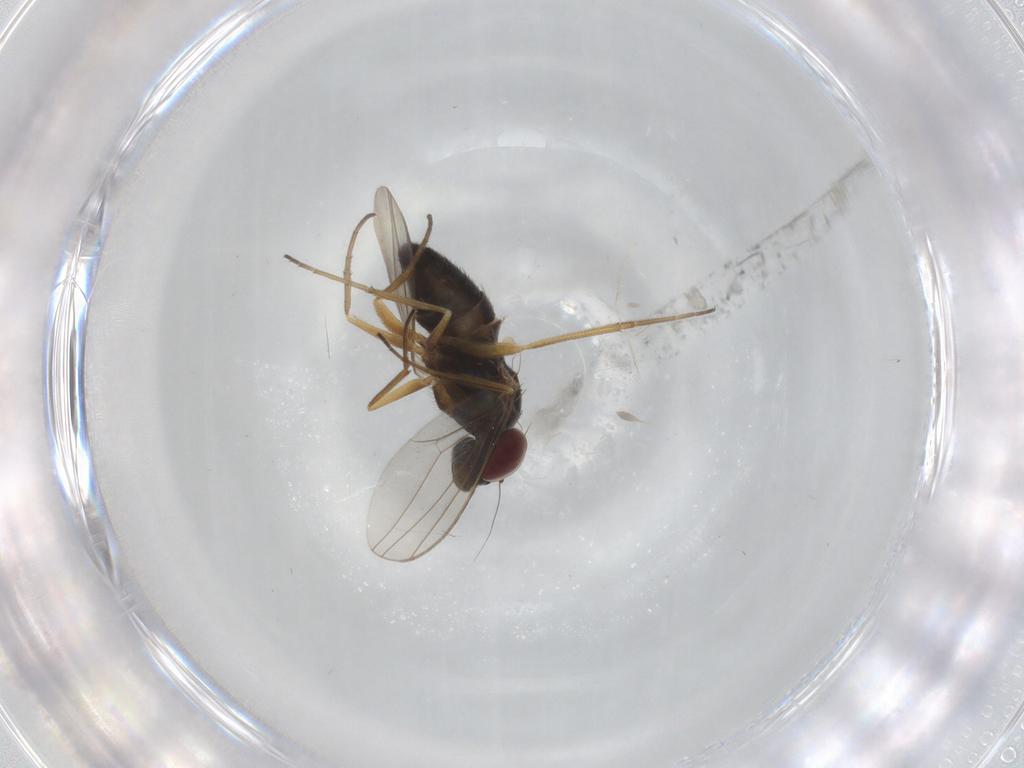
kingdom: Animalia
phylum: Arthropoda
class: Insecta
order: Diptera
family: Dolichopodidae
